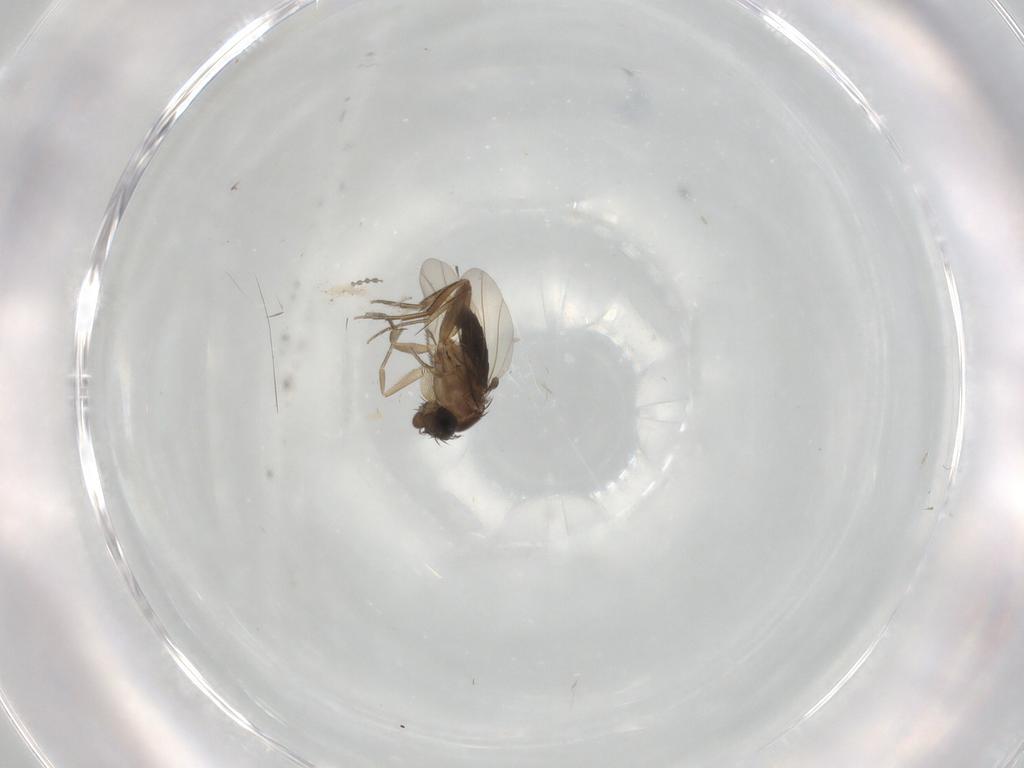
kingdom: Animalia
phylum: Arthropoda
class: Insecta
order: Diptera
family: Cecidomyiidae
